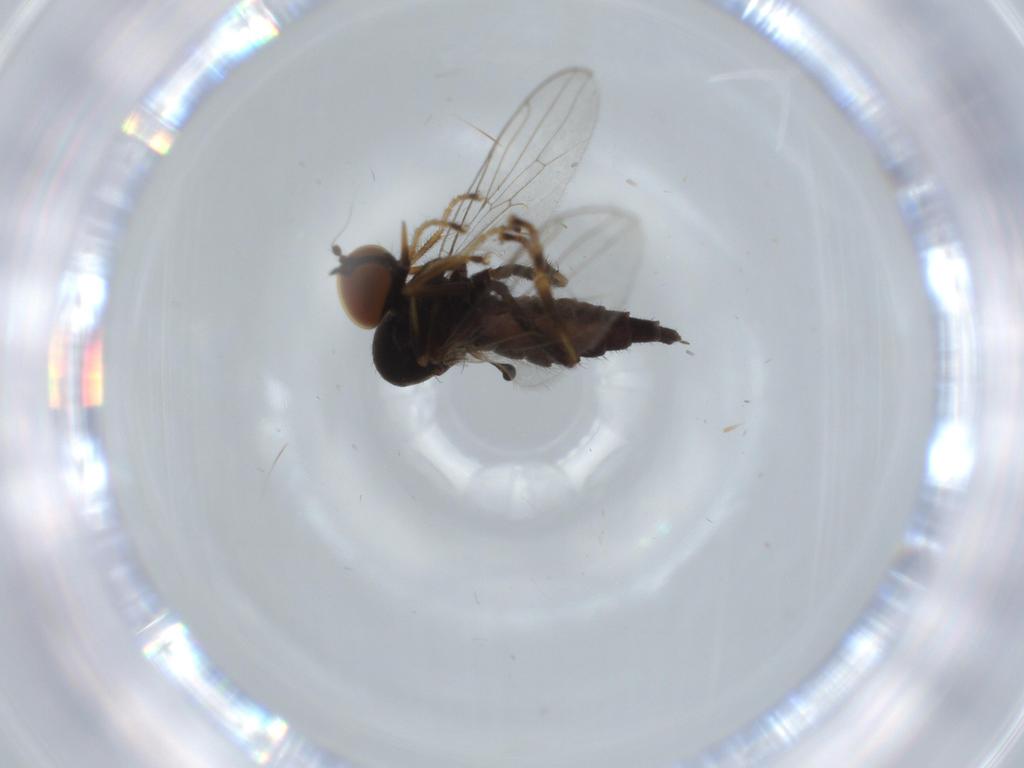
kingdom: Animalia
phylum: Arthropoda
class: Insecta
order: Diptera
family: Hybotidae
